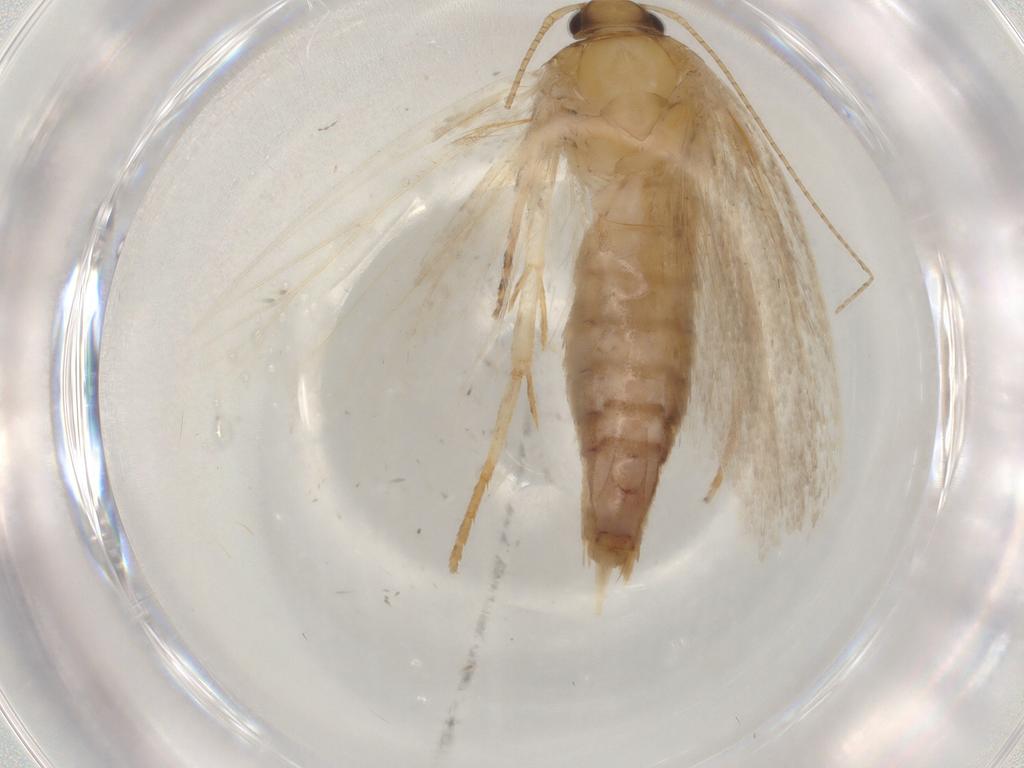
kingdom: Animalia
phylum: Arthropoda
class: Insecta
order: Lepidoptera
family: Gelechiidae
